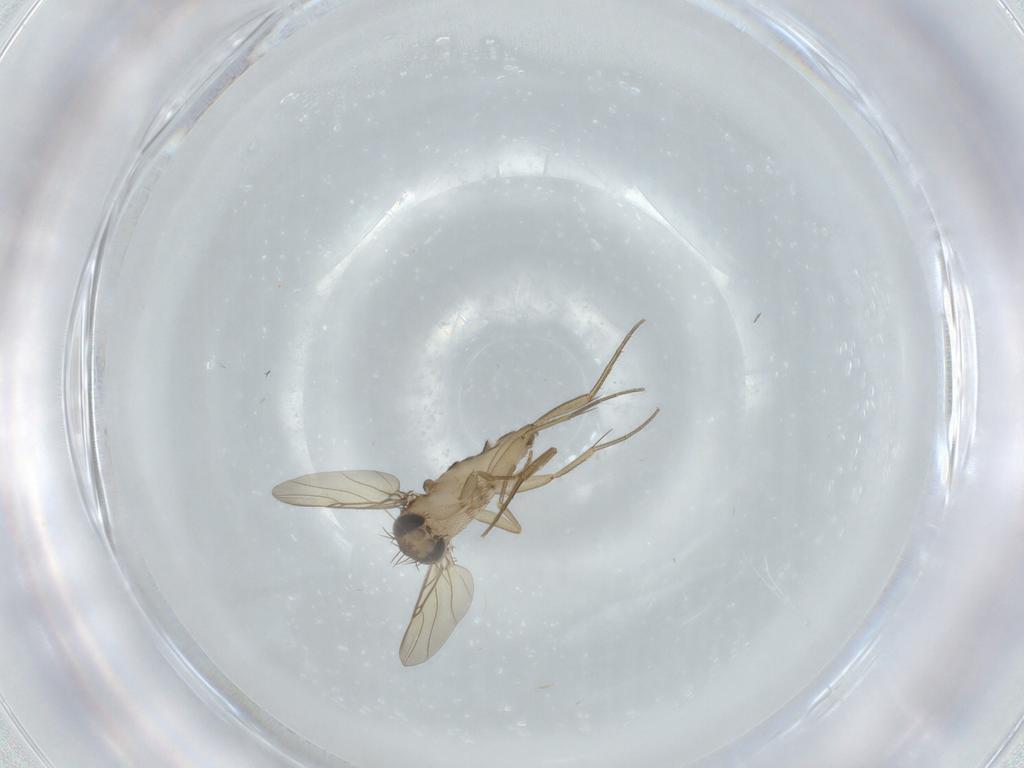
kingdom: Animalia
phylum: Arthropoda
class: Insecta
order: Diptera
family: Phoridae
